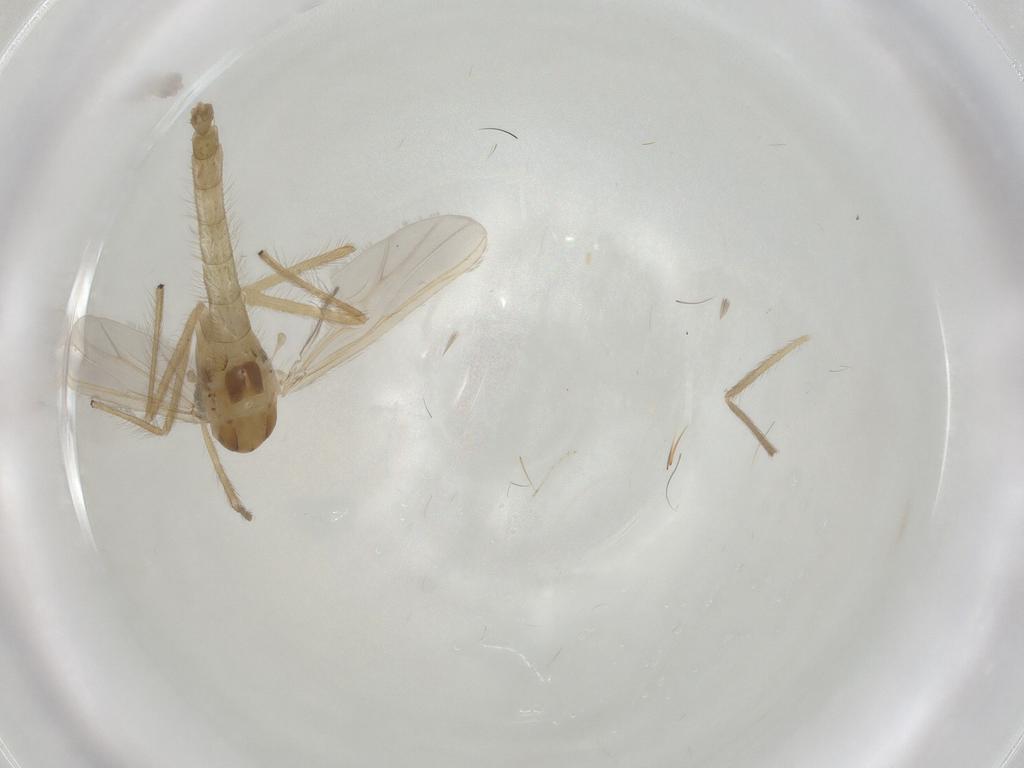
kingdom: Animalia
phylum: Arthropoda
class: Insecta
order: Diptera
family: Chironomidae
